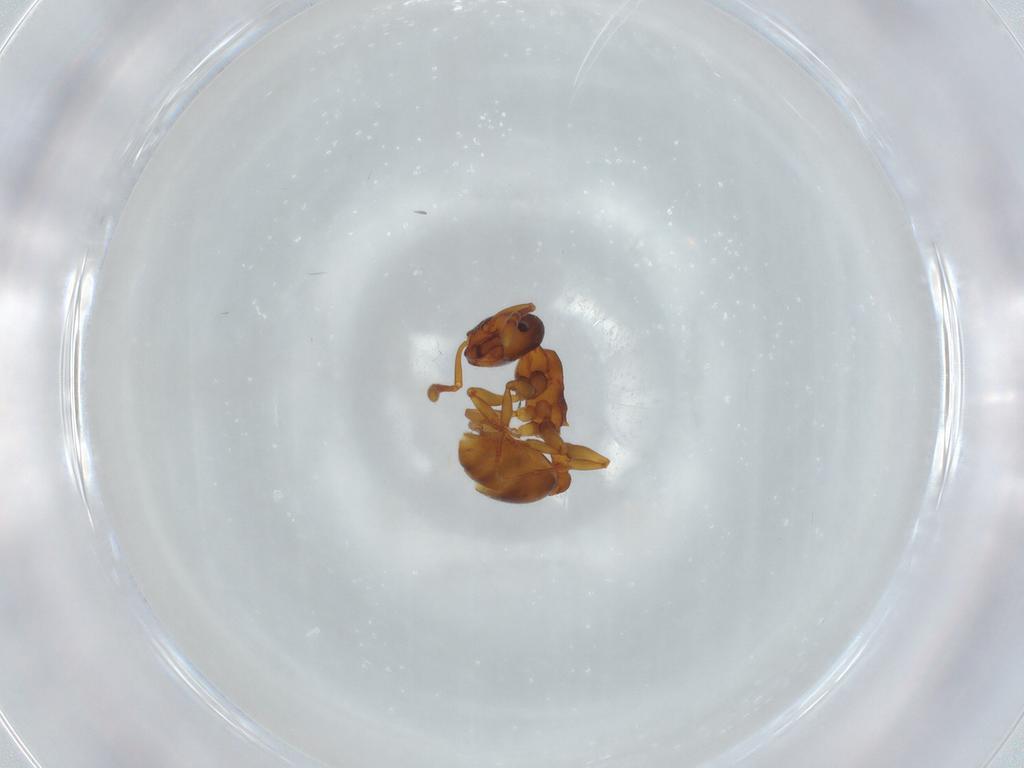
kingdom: Animalia
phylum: Arthropoda
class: Insecta
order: Hymenoptera
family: Formicidae
